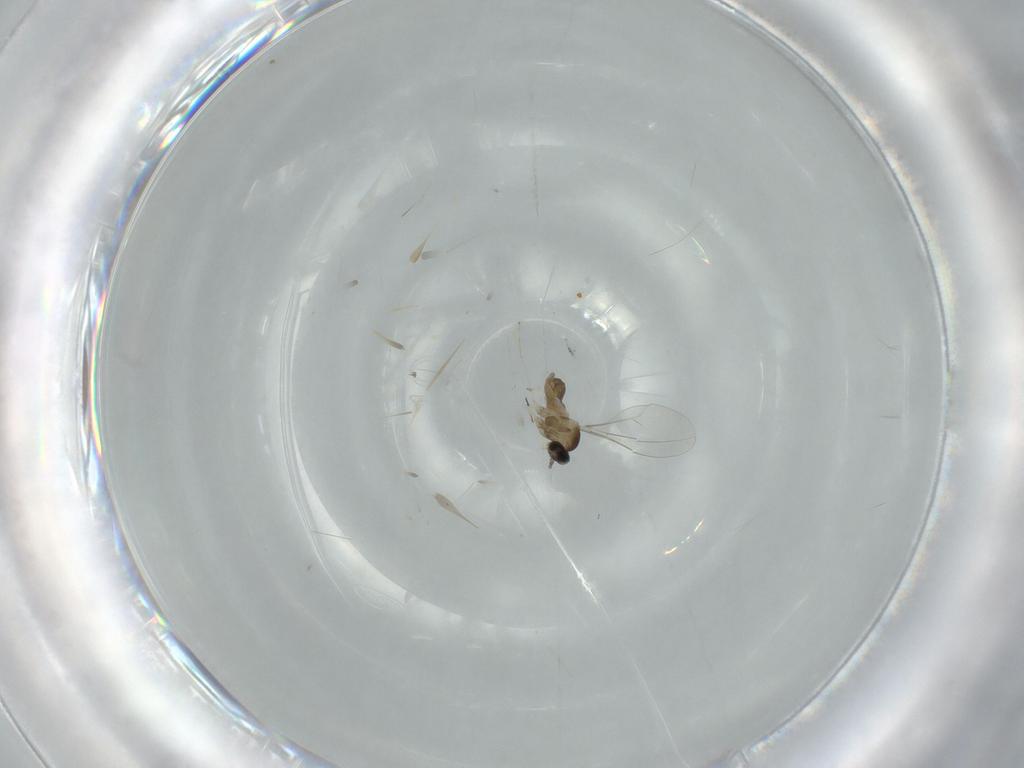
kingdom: Animalia
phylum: Arthropoda
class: Insecta
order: Diptera
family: Cecidomyiidae
